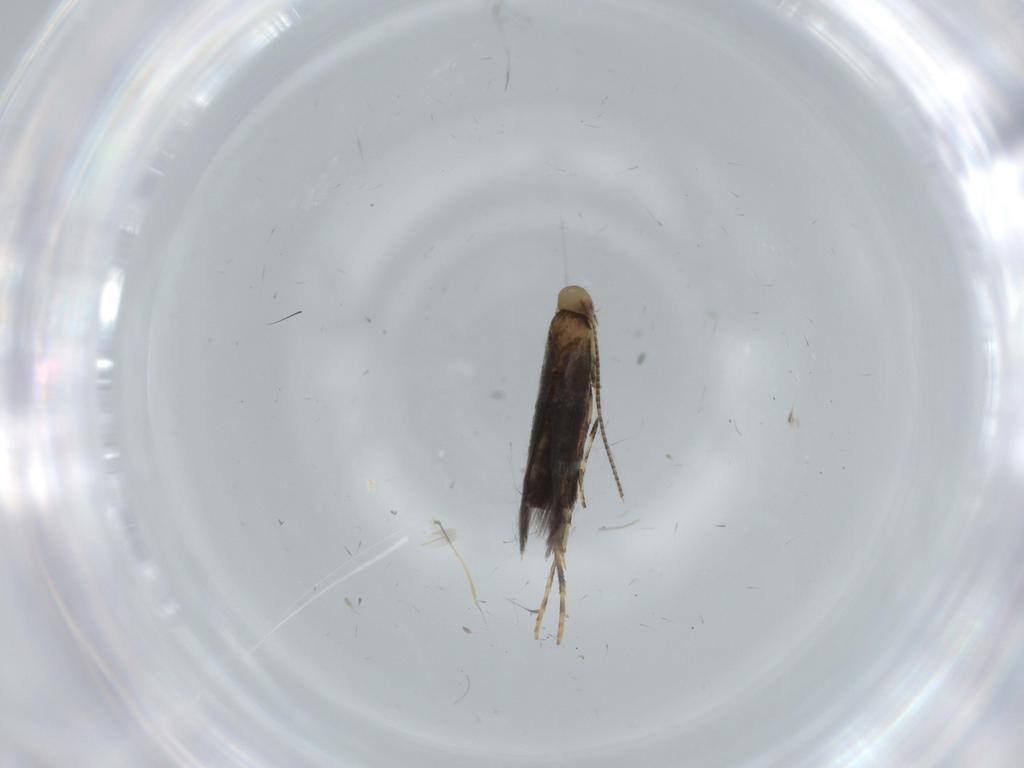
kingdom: Animalia
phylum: Arthropoda
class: Insecta
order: Lepidoptera
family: Gracillariidae
